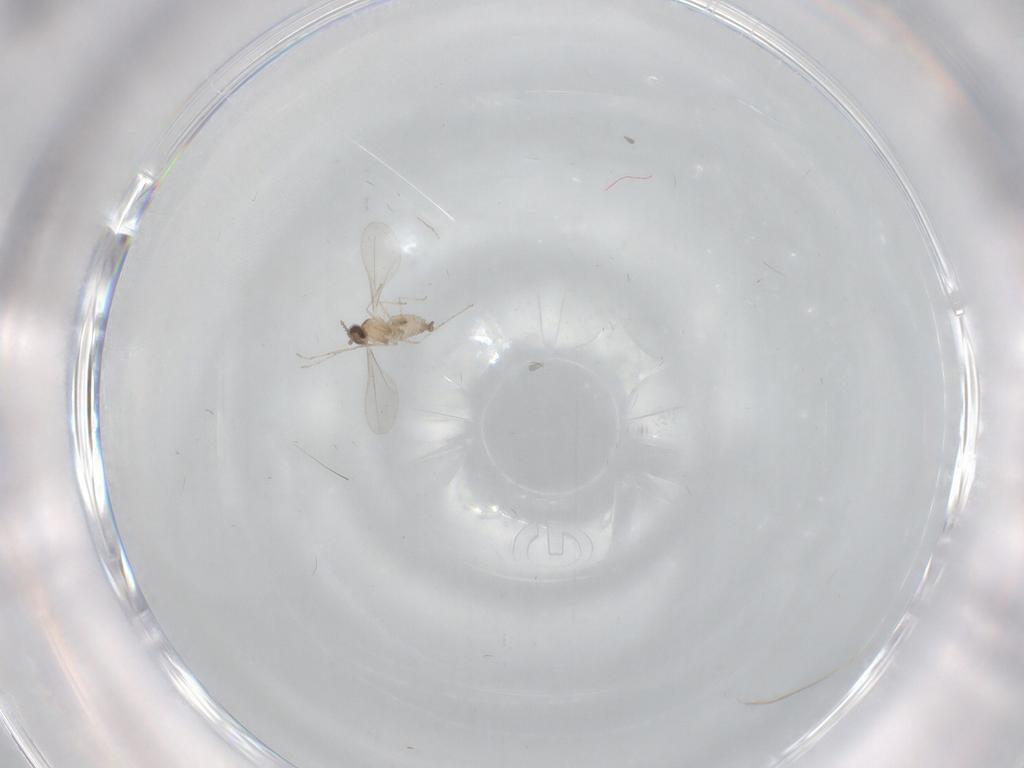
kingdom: Animalia
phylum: Arthropoda
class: Insecta
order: Diptera
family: Cecidomyiidae
